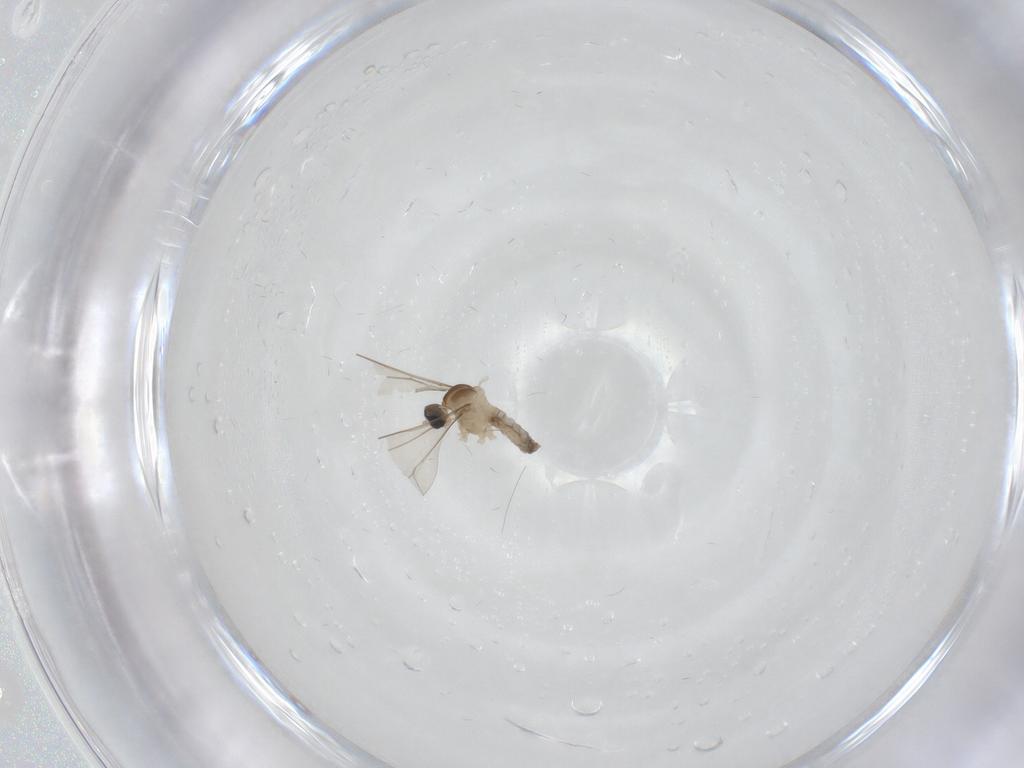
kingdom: Animalia
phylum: Arthropoda
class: Insecta
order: Diptera
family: Cecidomyiidae
